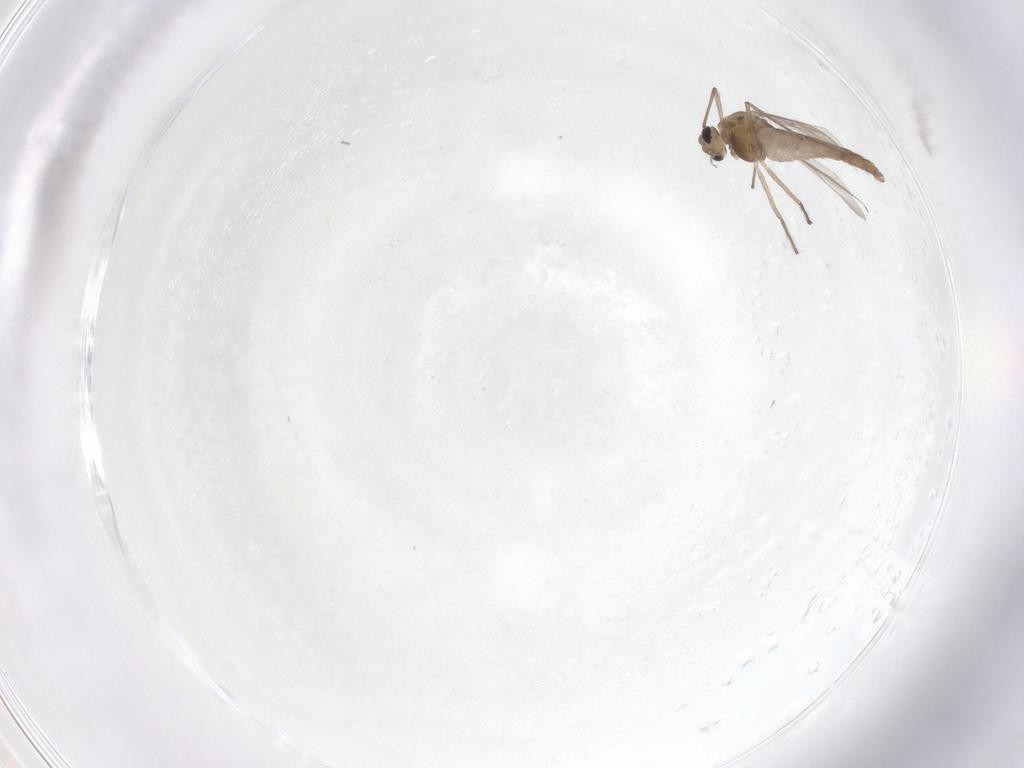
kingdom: Animalia
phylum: Arthropoda
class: Insecta
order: Diptera
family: Chironomidae
